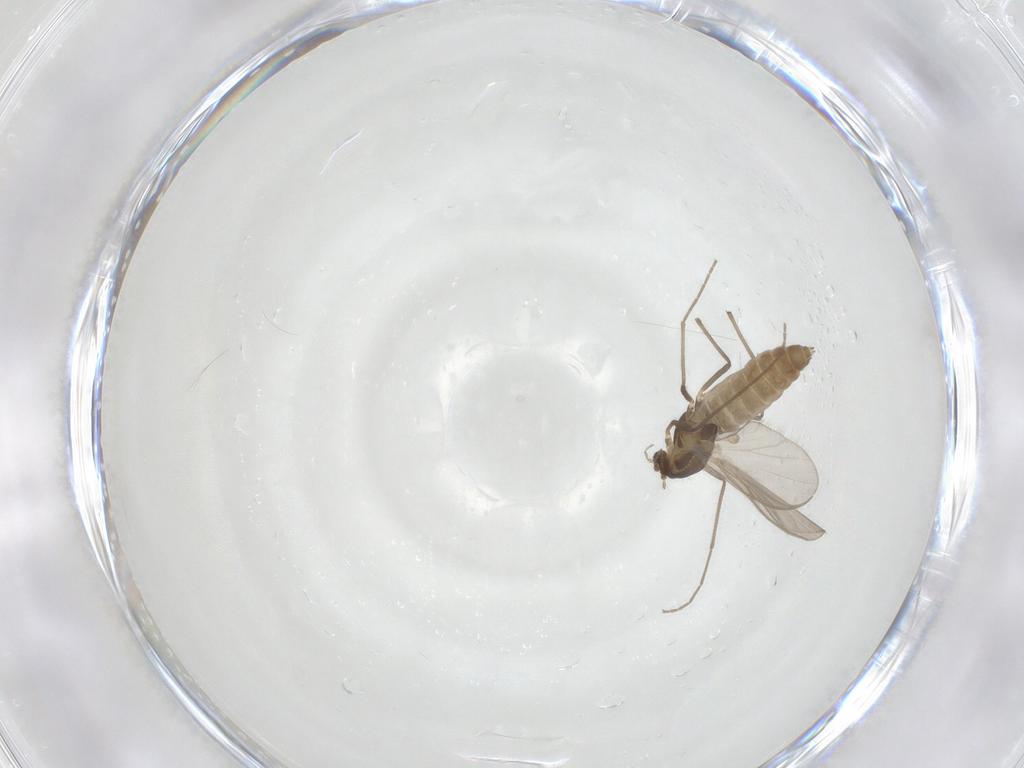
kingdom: Animalia
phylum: Arthropoda
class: Insecta
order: Diptera
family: Chironomidae
